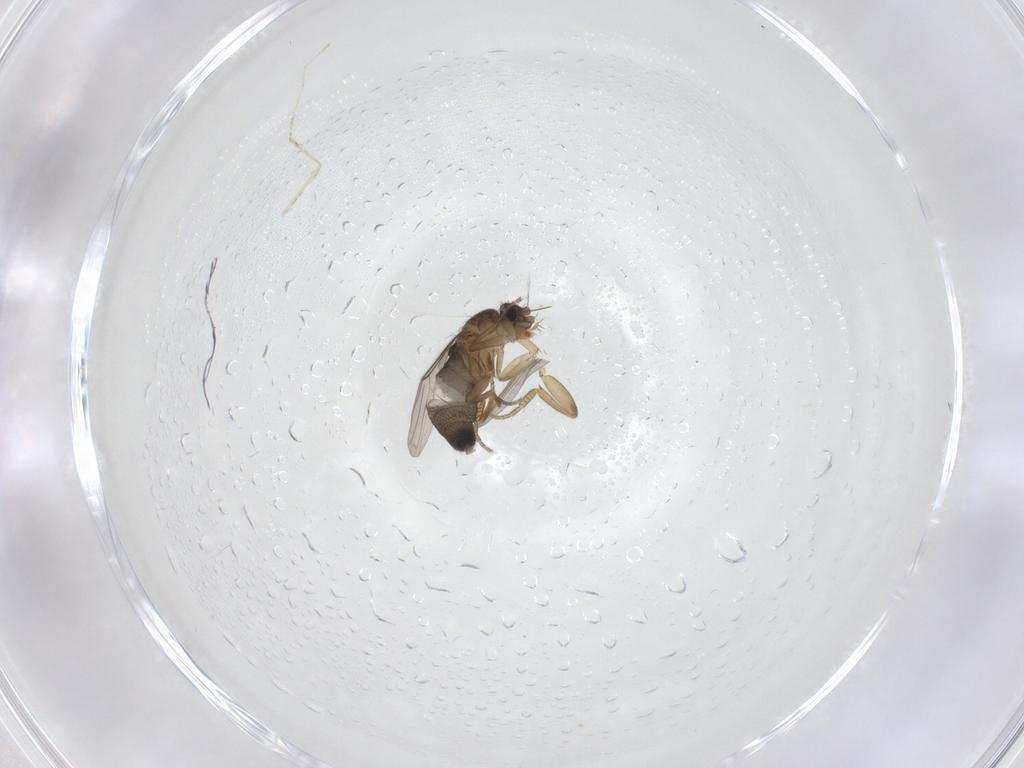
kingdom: Animalia
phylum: Arthropoda
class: Insecta
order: Diptera
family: Phoridae
